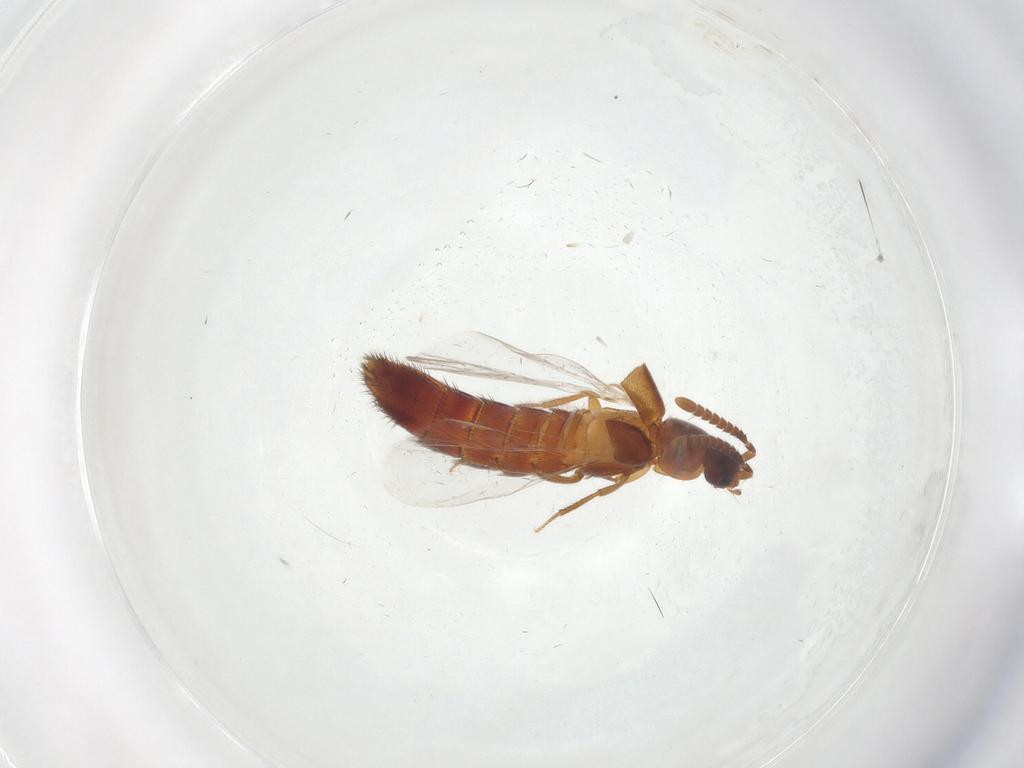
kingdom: Animalia
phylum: Arthropoda
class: Insecta
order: Coleoptera
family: Staphylinidae
